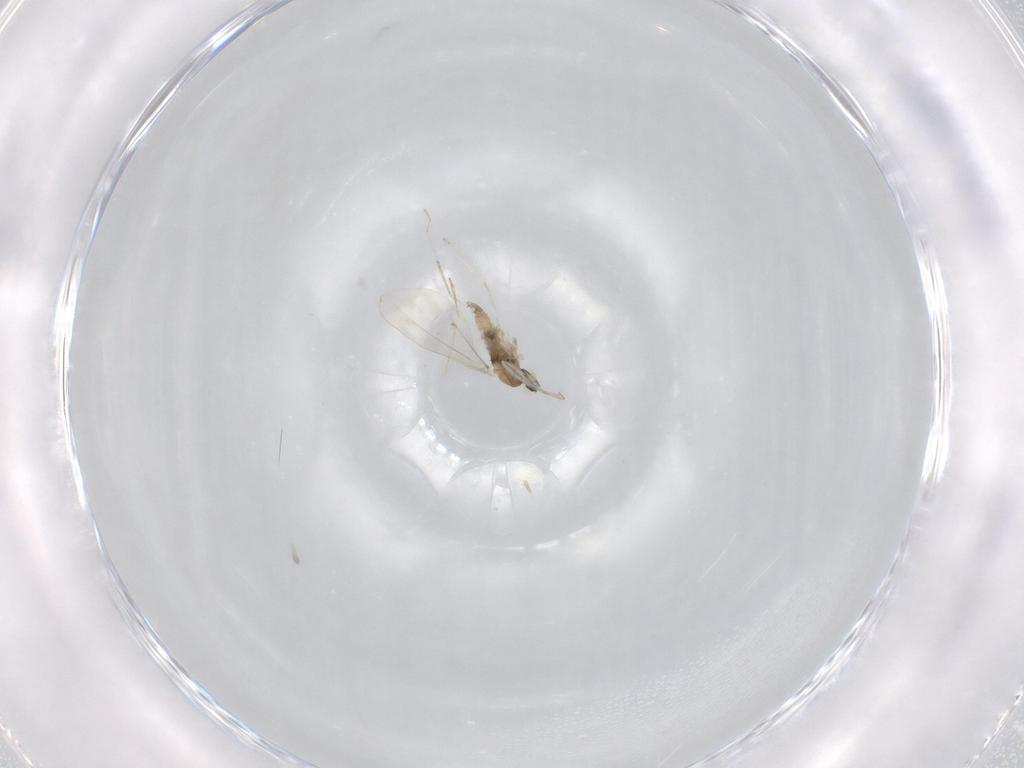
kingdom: Animalia
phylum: Arthropoda
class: Insecta
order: Diptera
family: Cecidomyiidae
